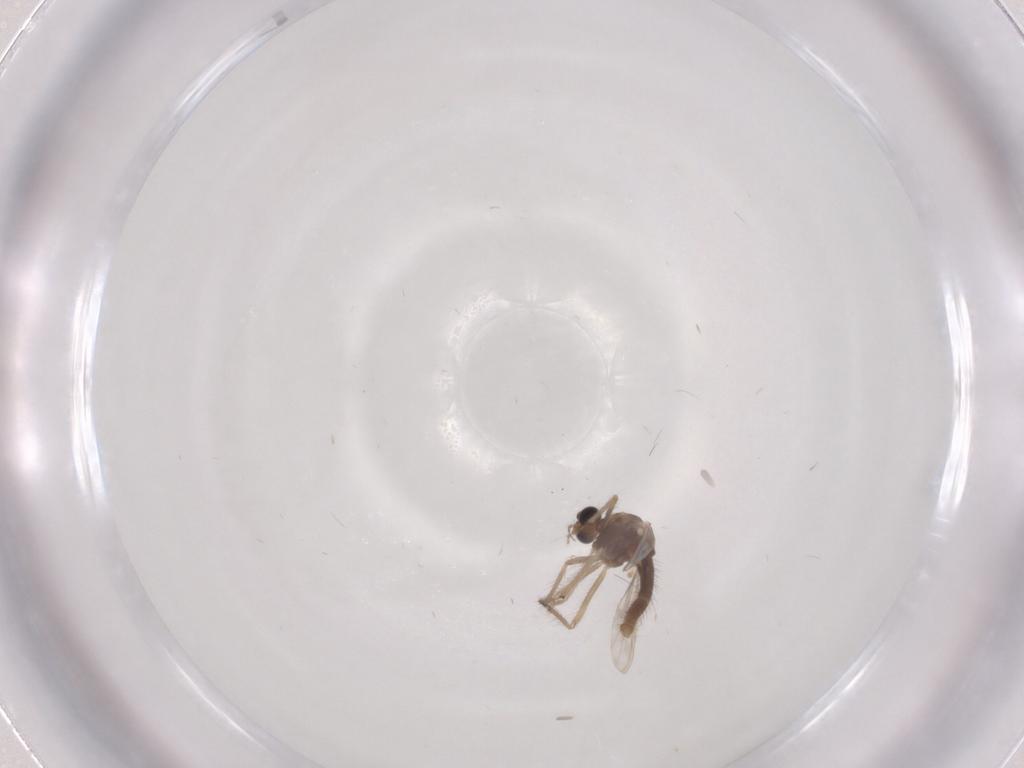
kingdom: Animalia
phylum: Arthropoda
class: Insecta
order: Diptera
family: Chironomidae
